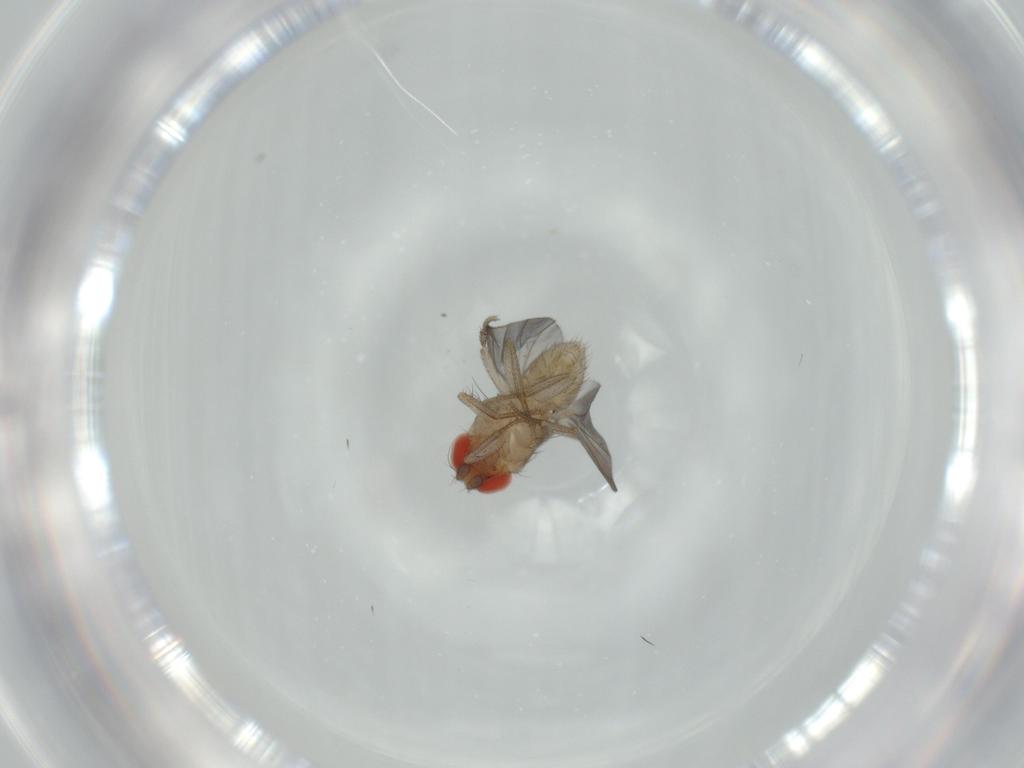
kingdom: Animalia
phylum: Arthropoda
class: Insecta
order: Diptera
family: Drosophilidae
